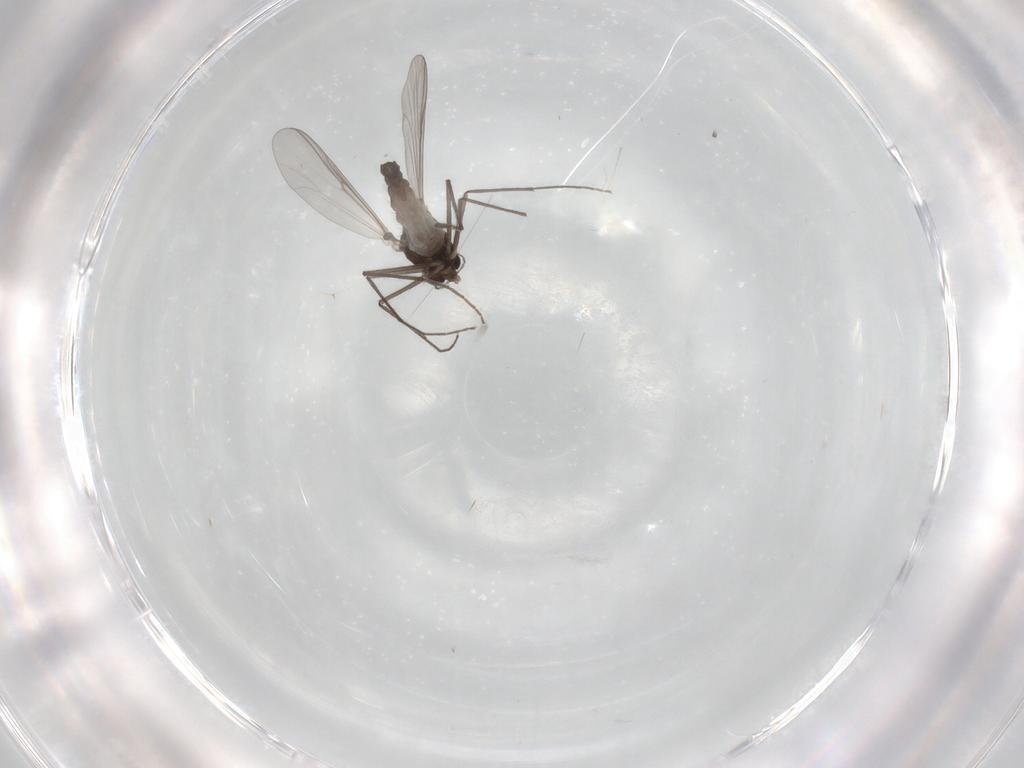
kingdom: Animalia
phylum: Arthropoda
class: Insecta
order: Diptera
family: Chironomidae
